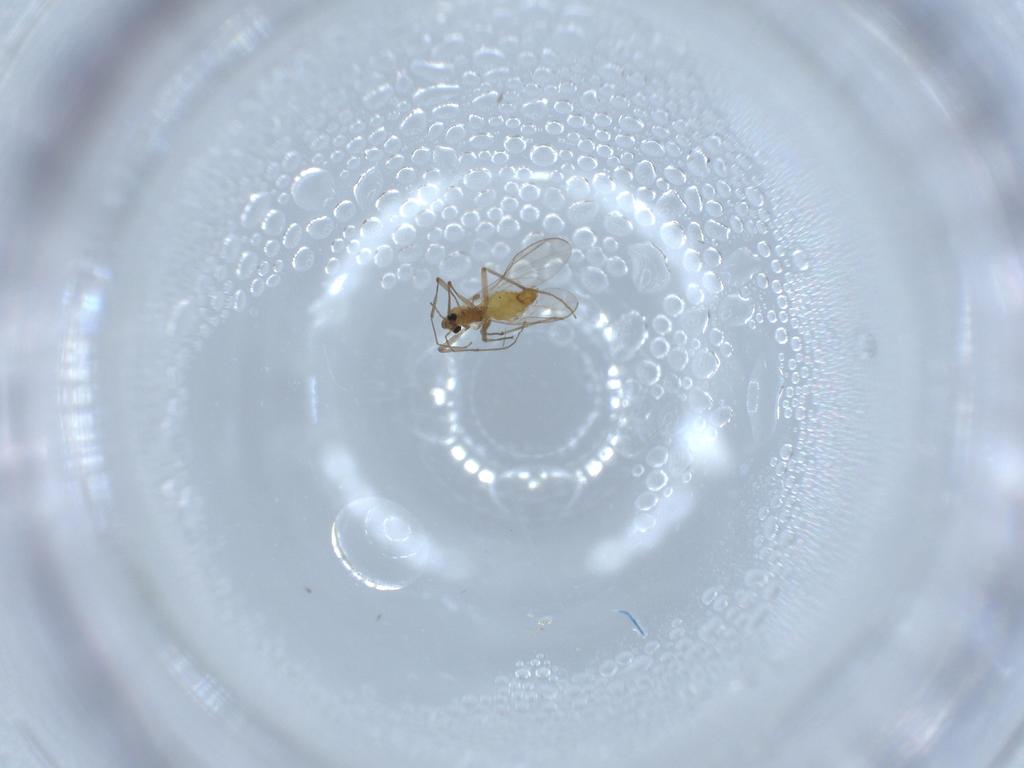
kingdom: Animalia
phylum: Arthropoda
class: Insecta
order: Diptera
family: Chironomidae
